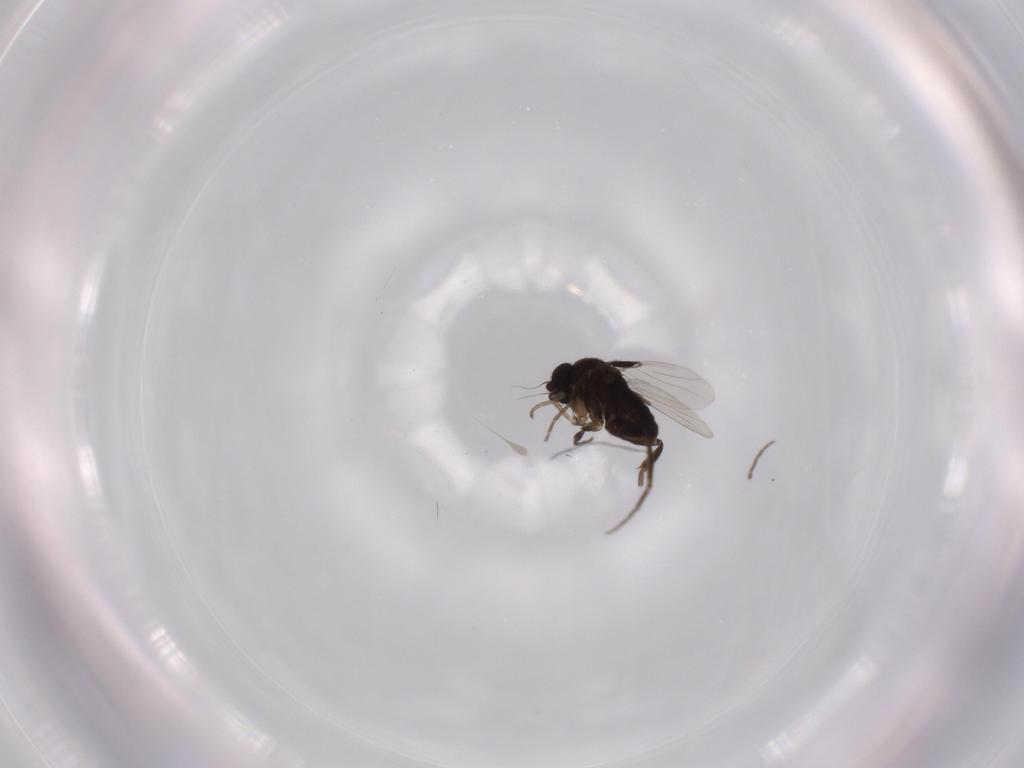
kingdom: Animalia
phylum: Arthropoda
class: Insecta
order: Diptera
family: Phoridae
